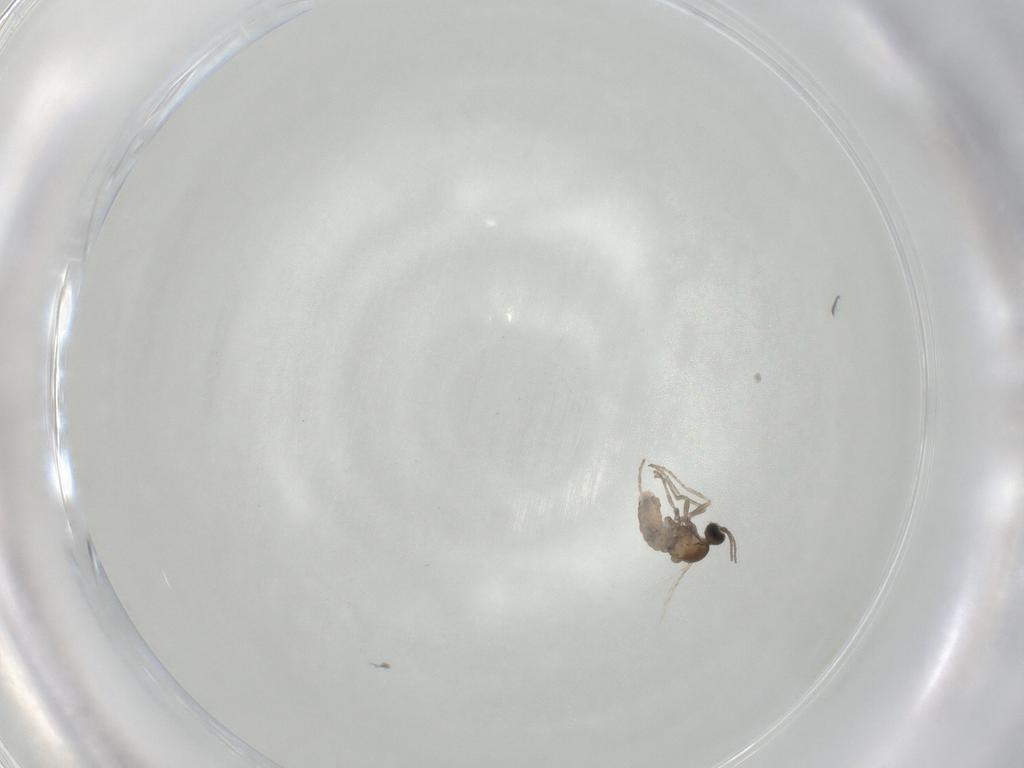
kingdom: Animalia
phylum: Arthropoda
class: Insecta
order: Diptera
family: Cecidomyiidae
